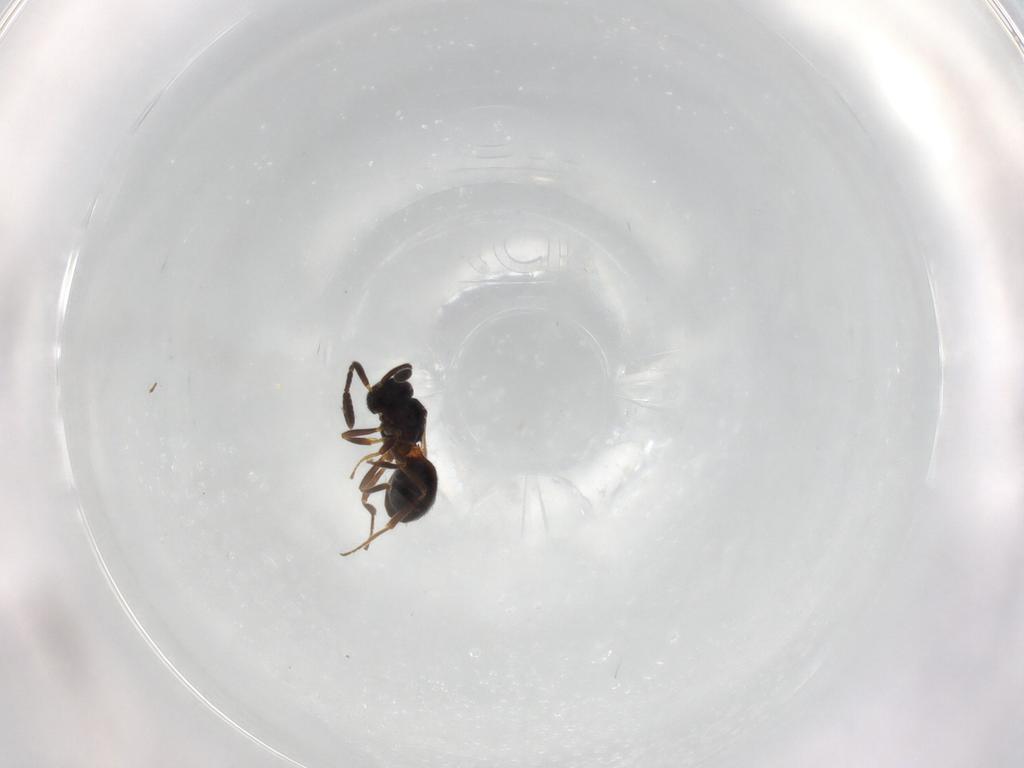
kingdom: Animalia
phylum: Arthropoda
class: Insecta
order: Hymenoptera
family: Scelionidae
